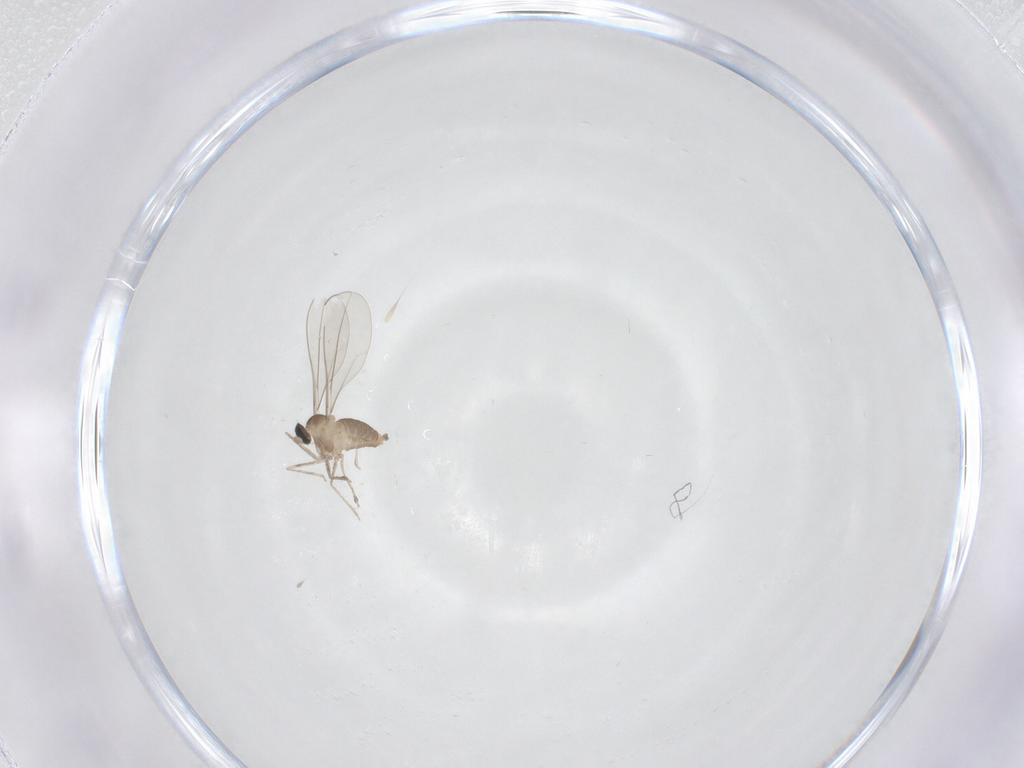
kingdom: Animalia
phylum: Arthropoda
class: Insecta
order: Diptera
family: Cecidomyiidae
